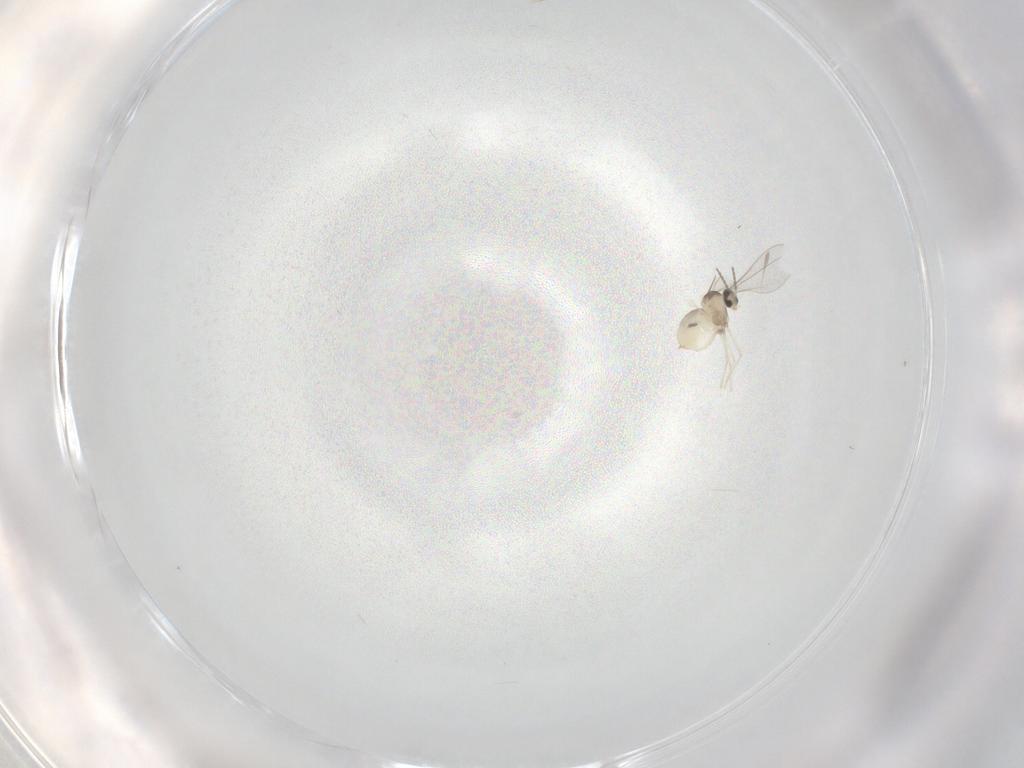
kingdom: Animalia
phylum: Arthropoda
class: Insecta
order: Diptera
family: Cecidomyiidae
